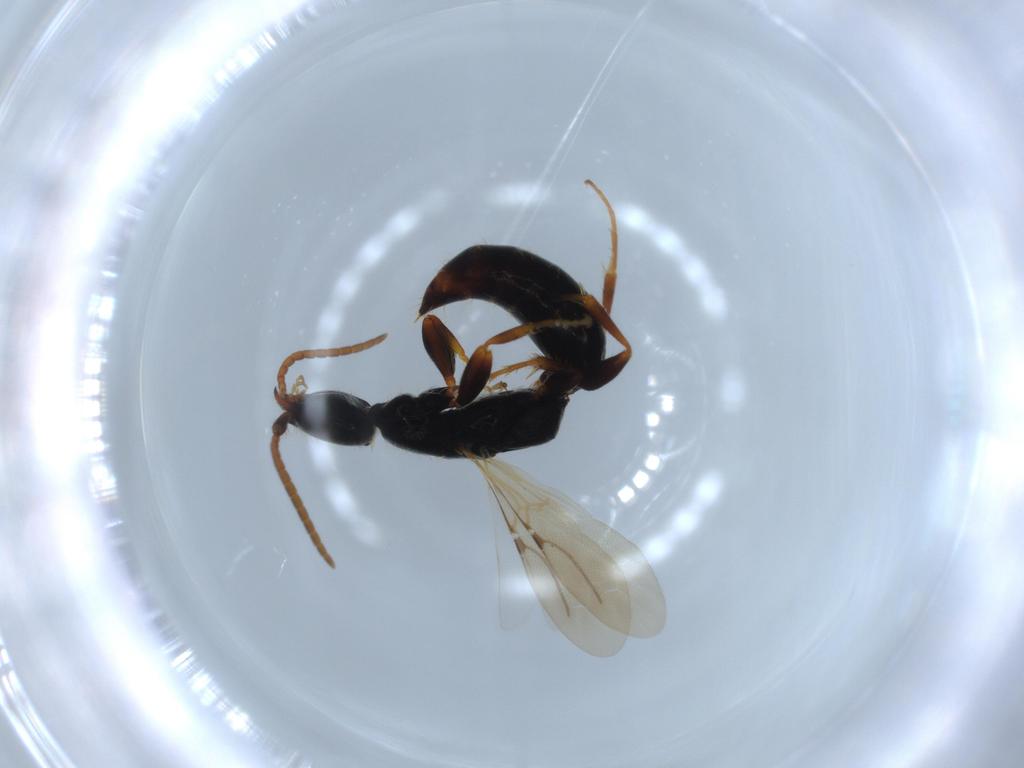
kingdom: Animalia
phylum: Arthropoda
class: Insecta
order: Hymenoptera
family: Bethylidae
